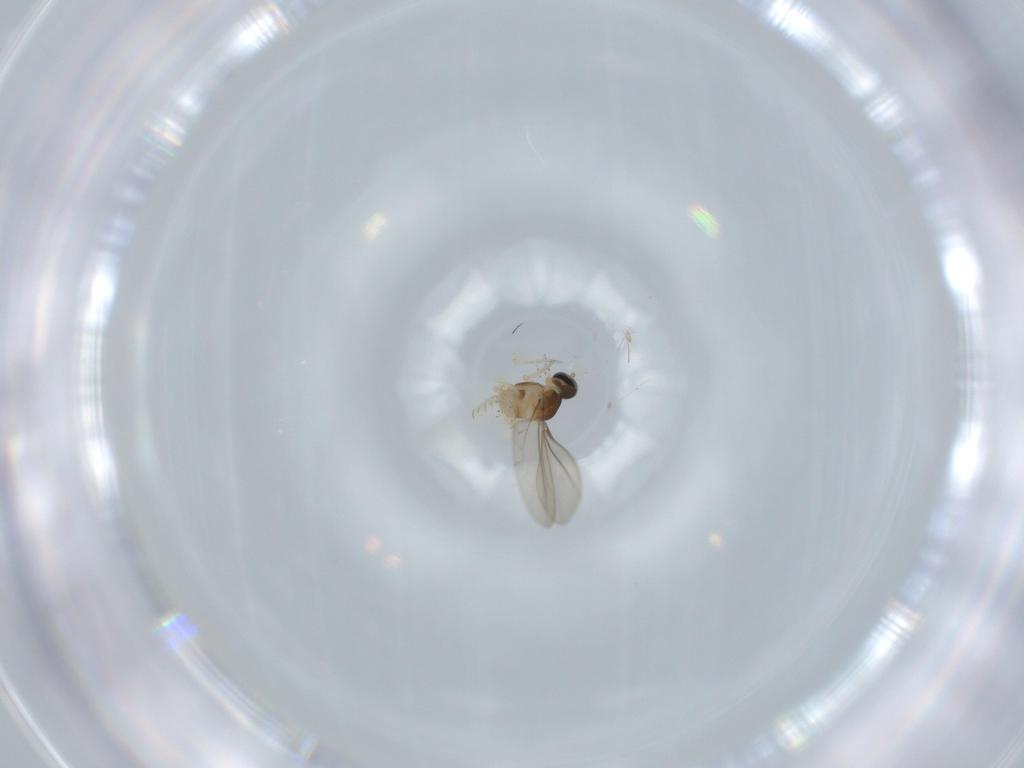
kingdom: Animalia
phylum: Arthropoda
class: Insecta
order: Diptera
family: Cecidomyiidae
